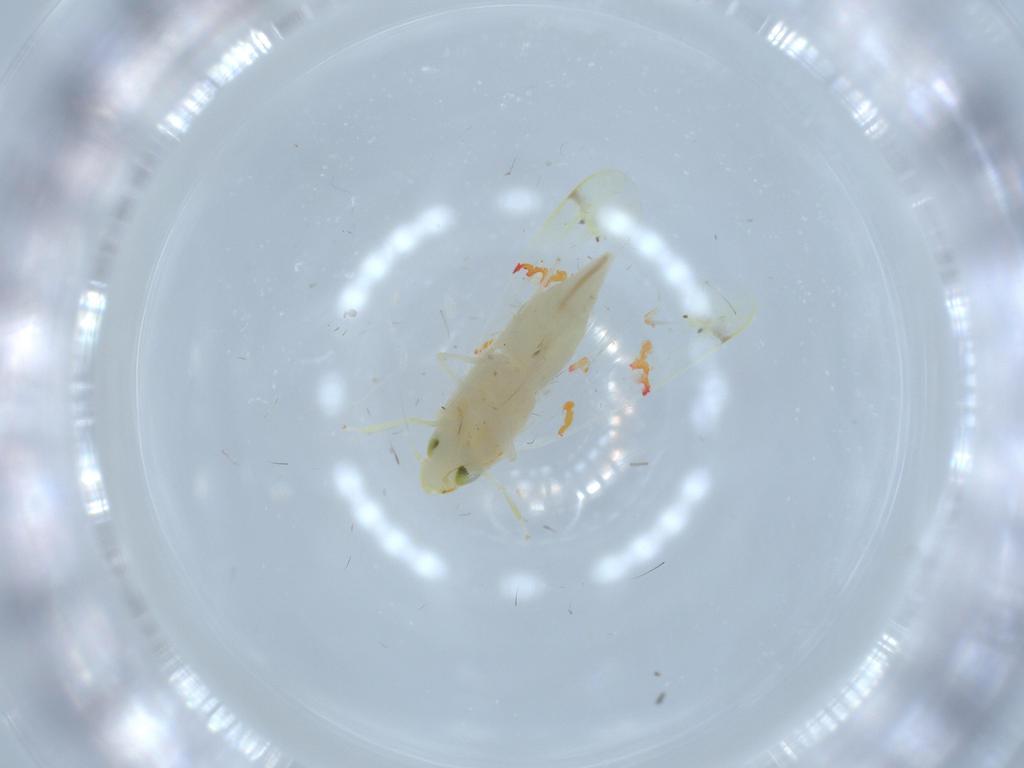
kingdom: Animalia
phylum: Arthropoda
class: Insecta
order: Hemiptera
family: Cicadellidae
